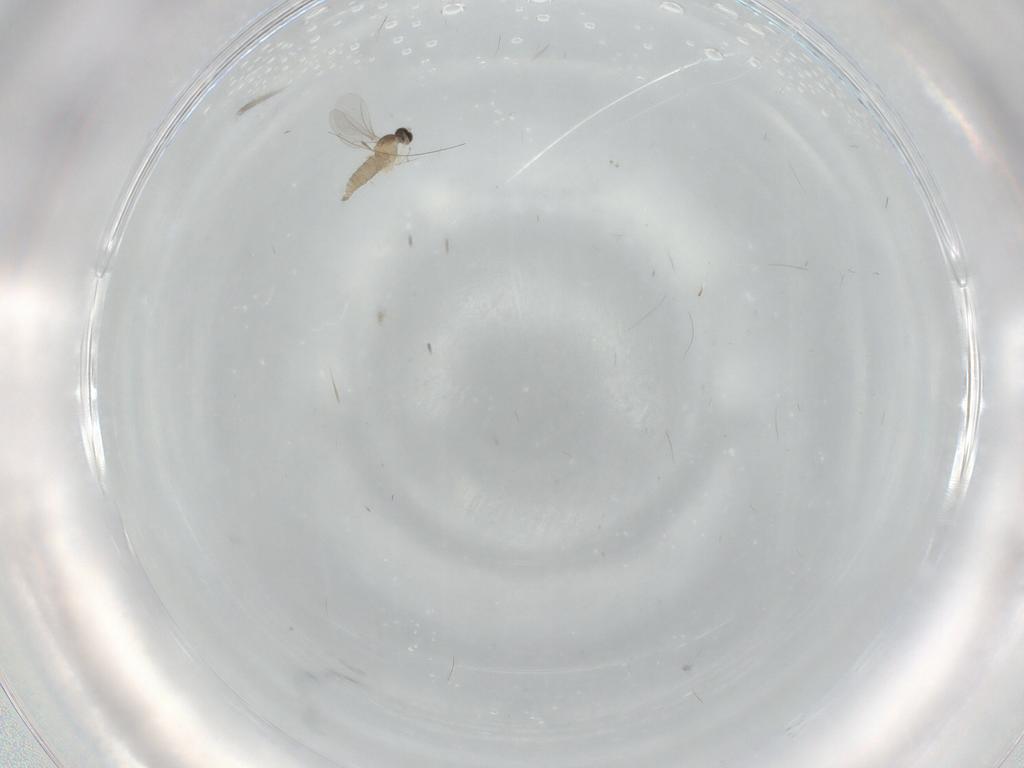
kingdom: Animalia
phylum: Arthropoda
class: Insecta
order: Diptera
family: Cecidomyiidae
